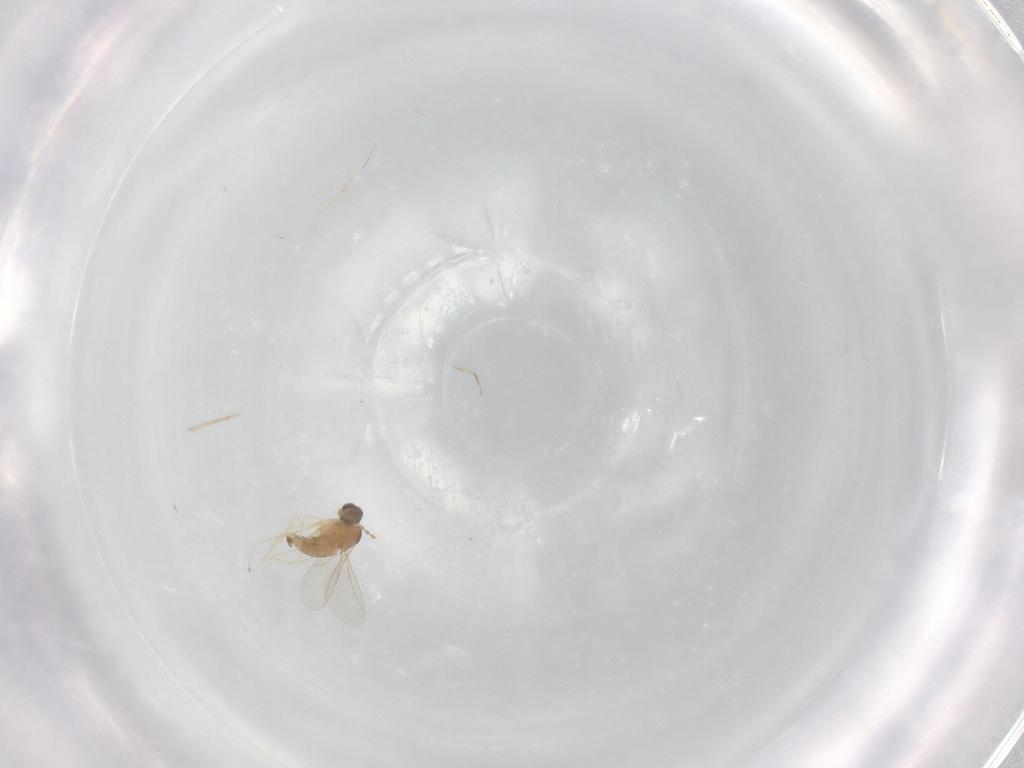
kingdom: Animalia
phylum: Arthropoda
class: Insecta
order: Diptera
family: Cecidomyiidae
